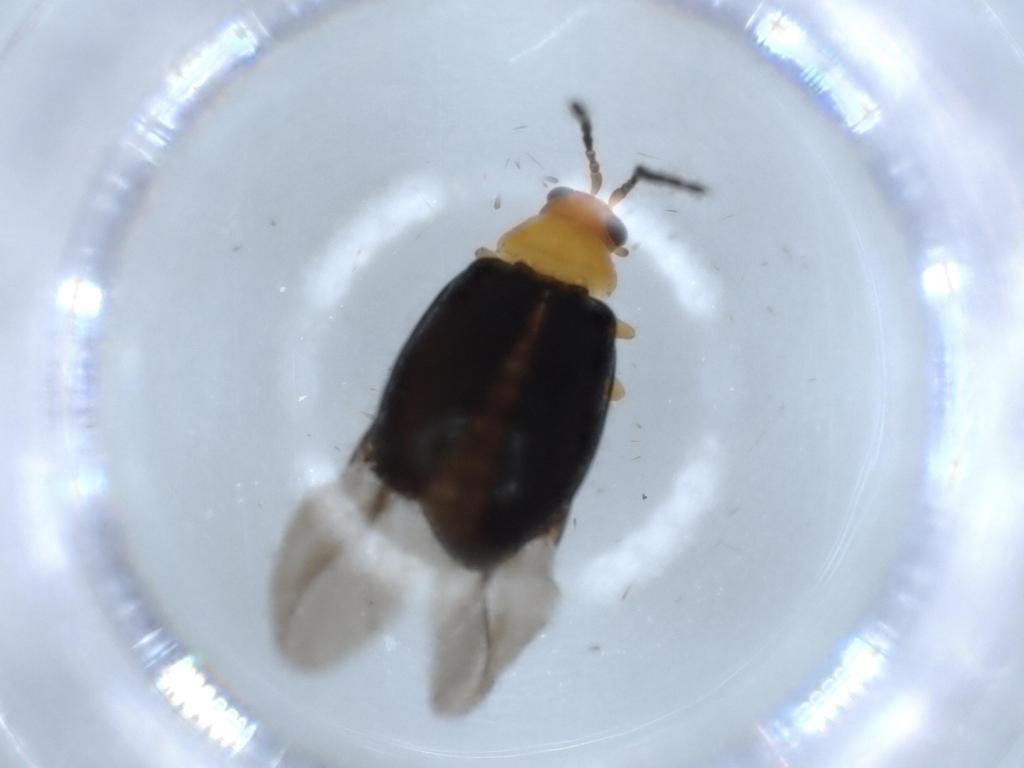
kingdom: Animalia
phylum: Arthropoda
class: Insecta
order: Coleoptera
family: Chrysomelidae
